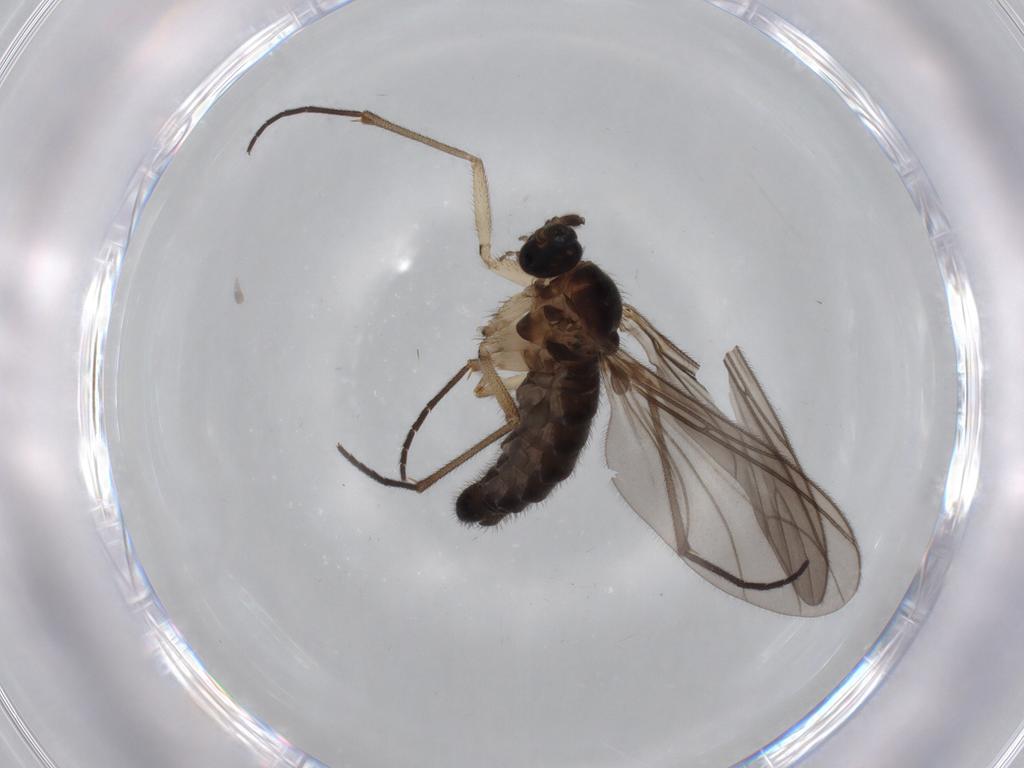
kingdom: Animalia
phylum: Arthropoda
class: Insecta
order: Diptera
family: Sciaridae
